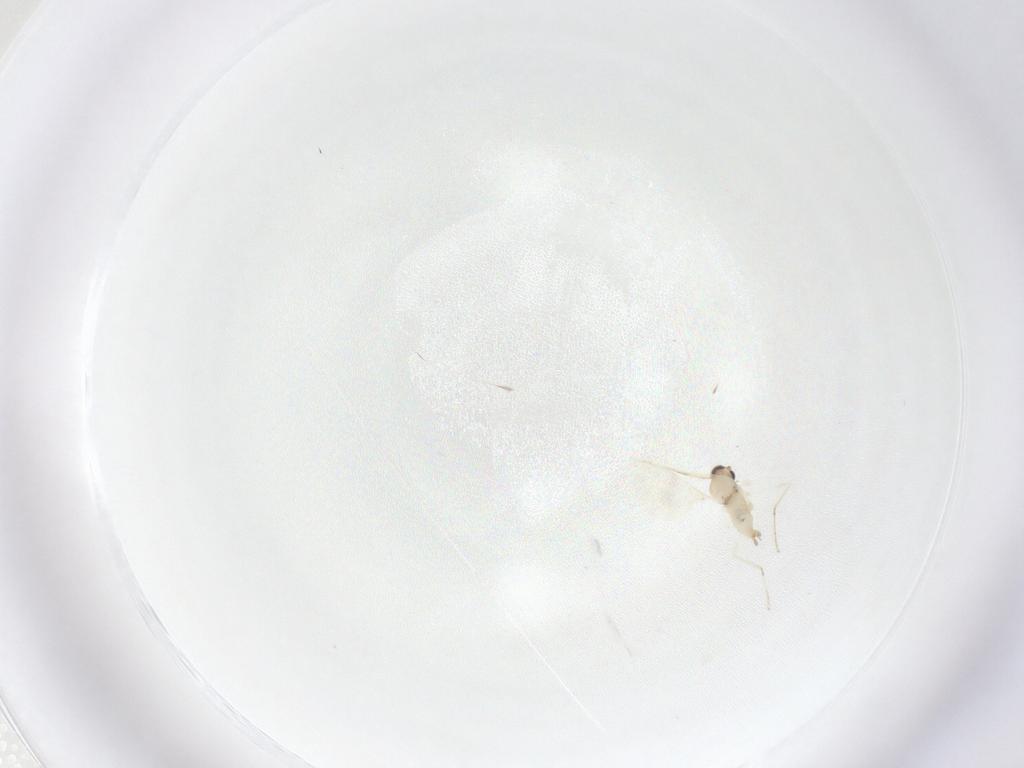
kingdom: Animalia
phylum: Arthropoda
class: Insecta
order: Diptera
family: Cecidomyiidae
